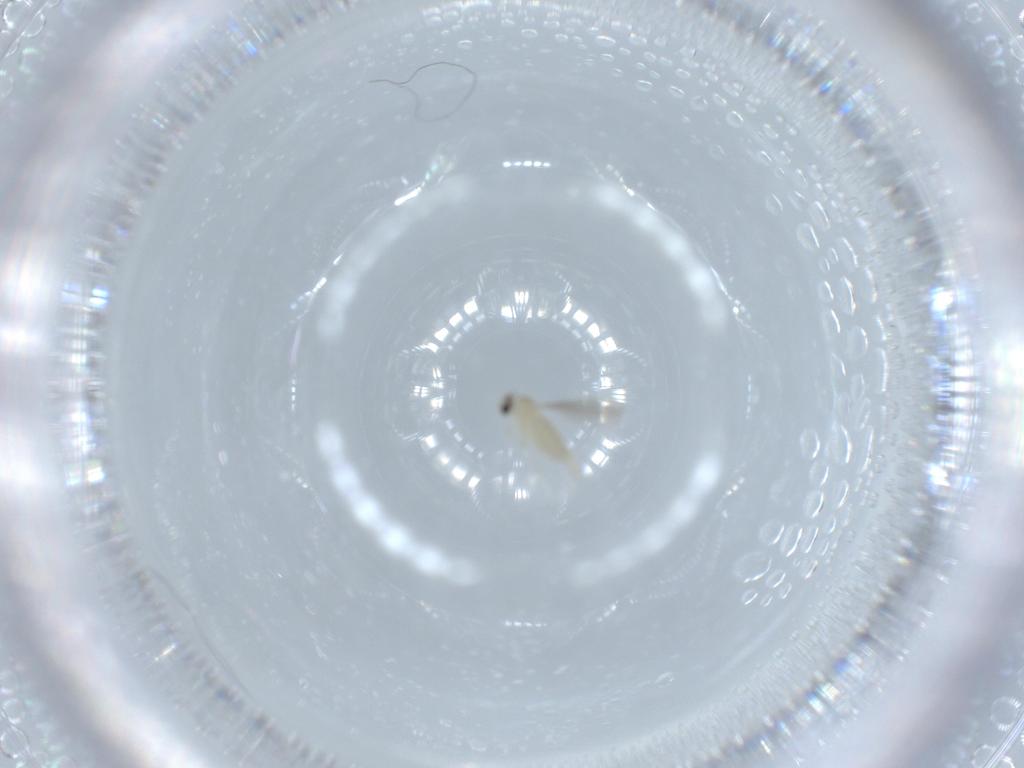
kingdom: Animalia
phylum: Arthropoda
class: Insecta
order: Diptera
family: Cecidomyiidae
